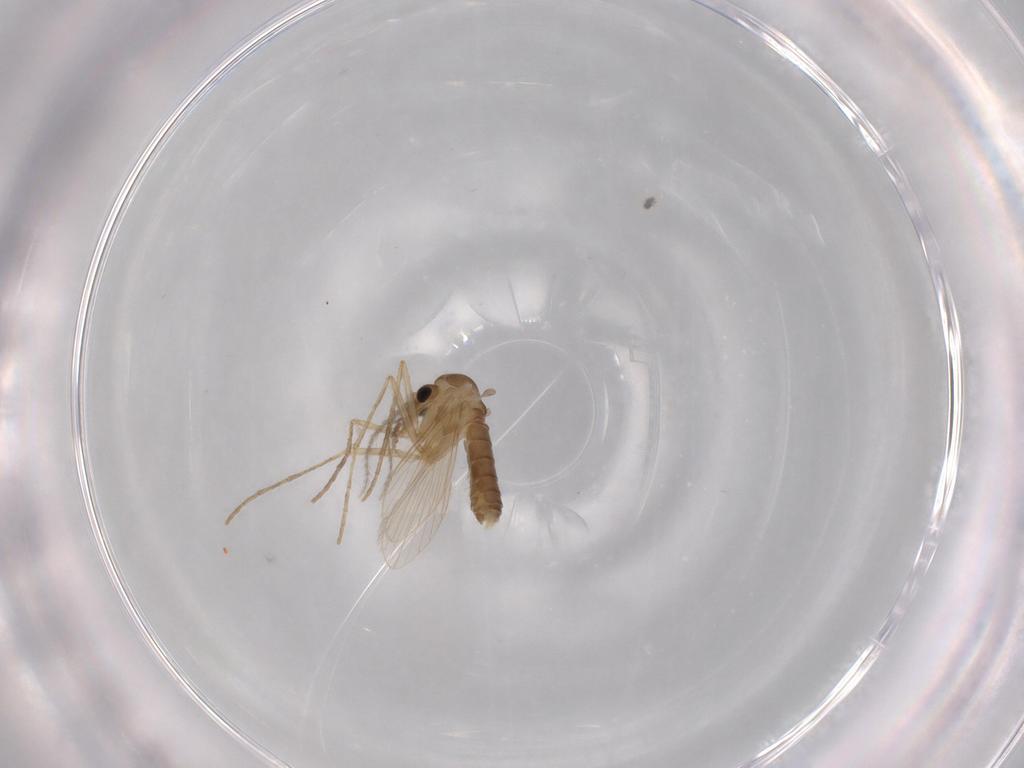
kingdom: Animalia
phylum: Arthropoda
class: Insecta
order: Diptera
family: Psychodidae
